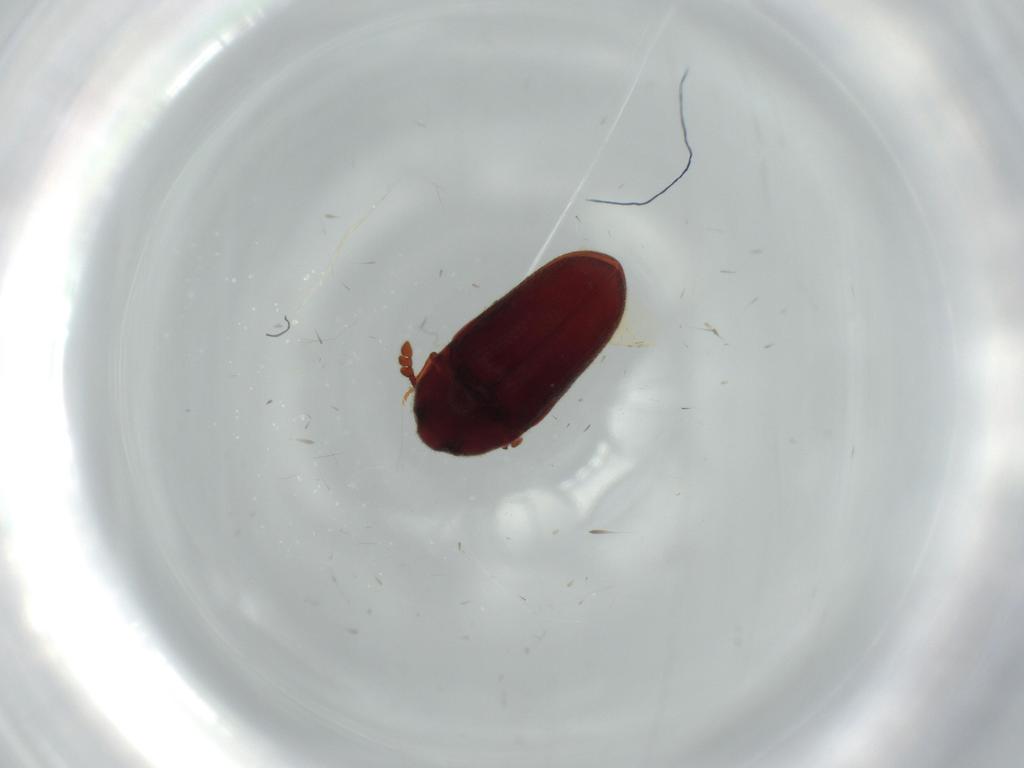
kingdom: Animalia
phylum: Arthropoda
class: Insecta
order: Coleoptera
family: Throscidae
